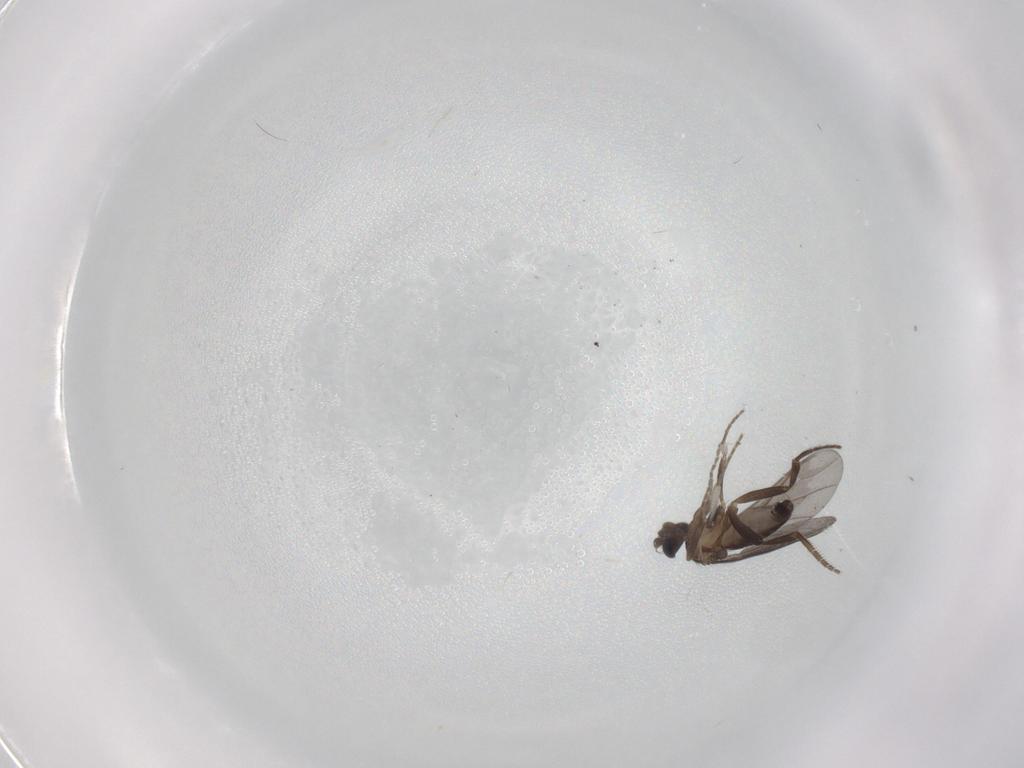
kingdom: Animalia
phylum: Arthropoda
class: Insecta
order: Diptera
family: Phoridae
